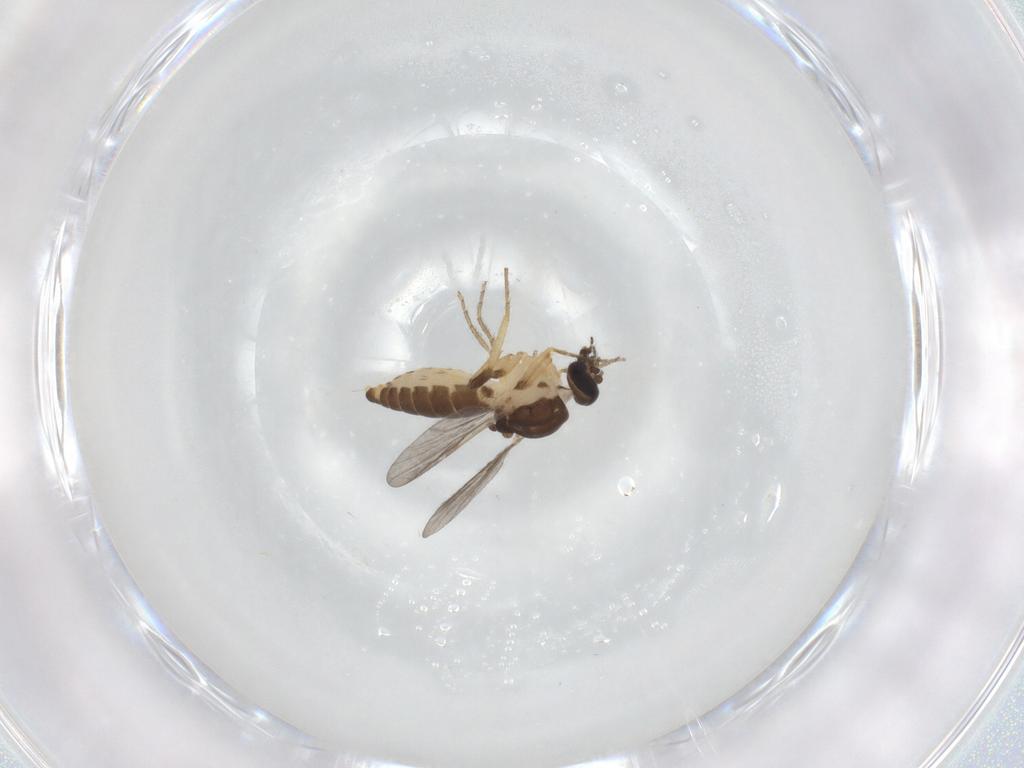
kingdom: Animalia
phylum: Arthropoda
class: Insecta
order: Diptera
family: Ceratopogonidae
